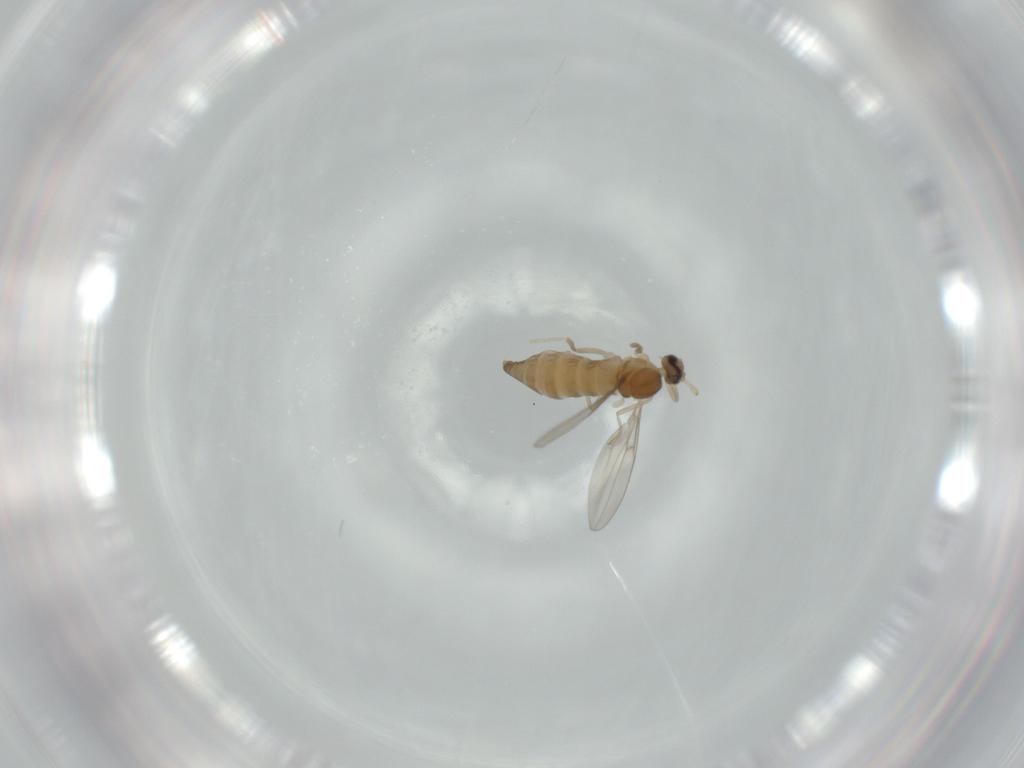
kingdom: Animalia
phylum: Arthropoda
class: Insecta
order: Diptera
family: Cecidomyiidae
